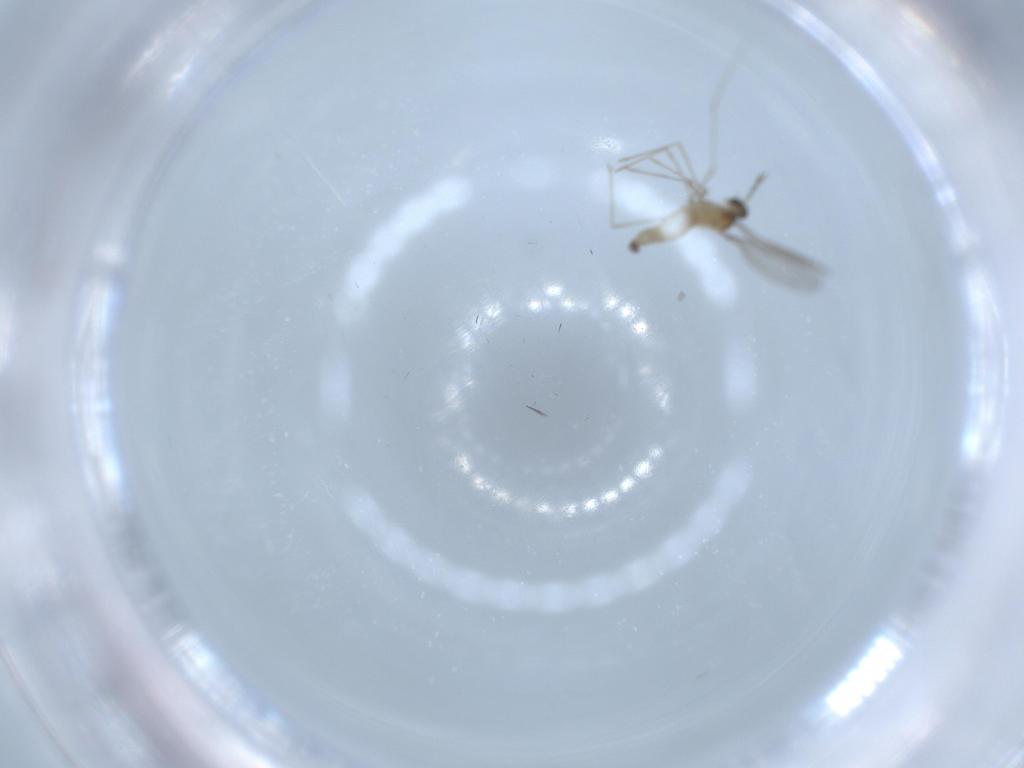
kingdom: Animalia
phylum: Arthropoda
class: Insecta
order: Diptera
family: Cecidomyiidae
